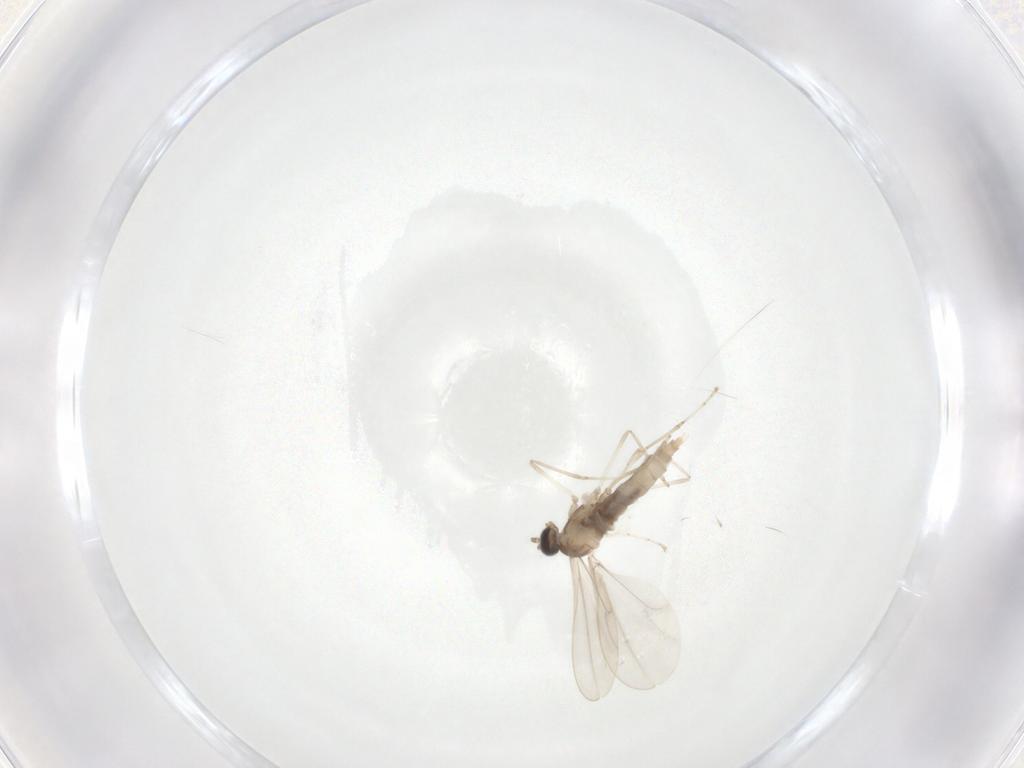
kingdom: Animalia
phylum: Arthropoda
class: Insecta
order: Diptera
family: Cecidomyiidae
